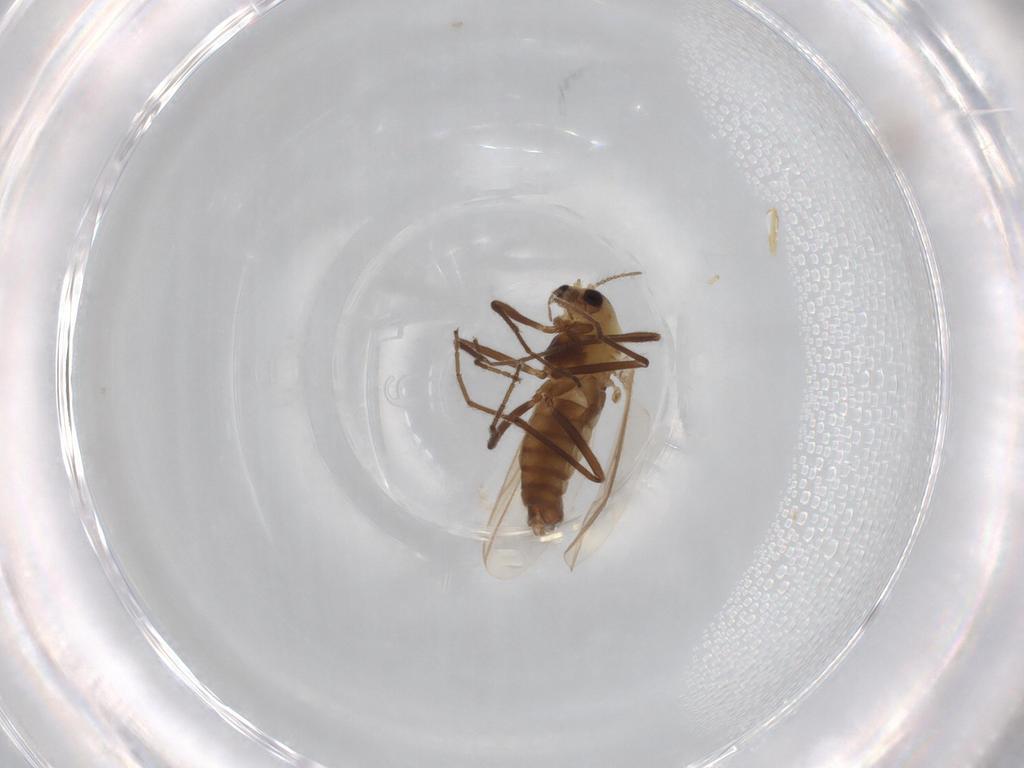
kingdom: Animalia
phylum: Arthropoda
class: Insecta
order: Diptera
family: Chironomidae
